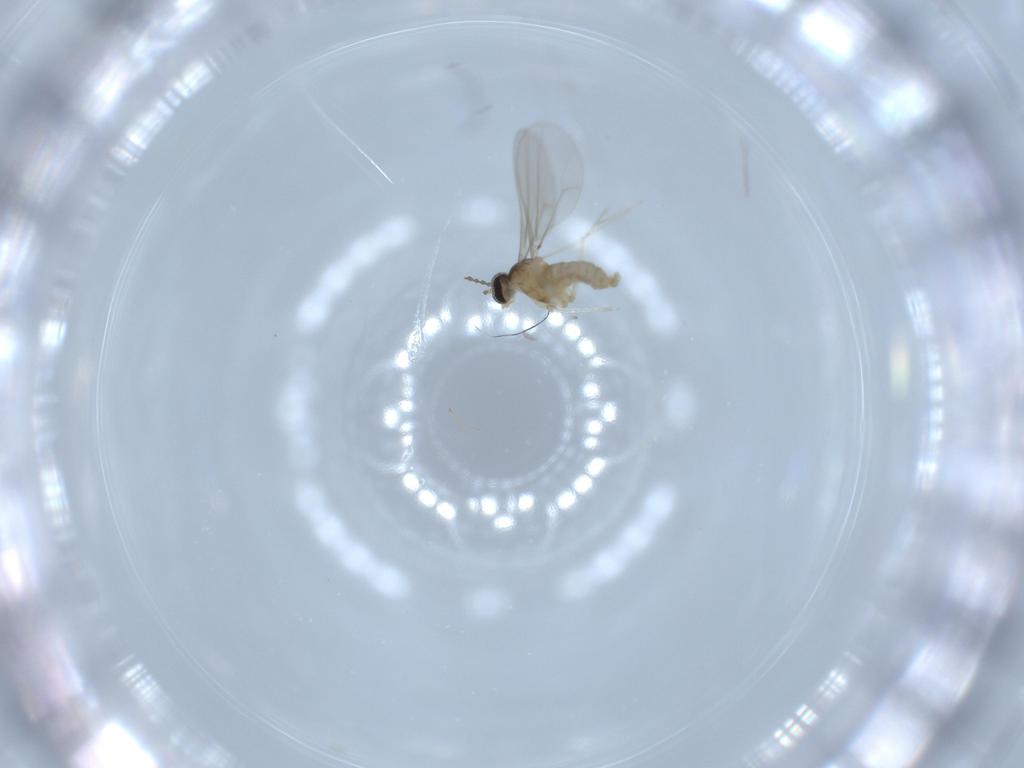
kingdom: Animalia
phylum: Arthropoda
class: Insecta
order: Diptera
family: Cecidomyiidae
